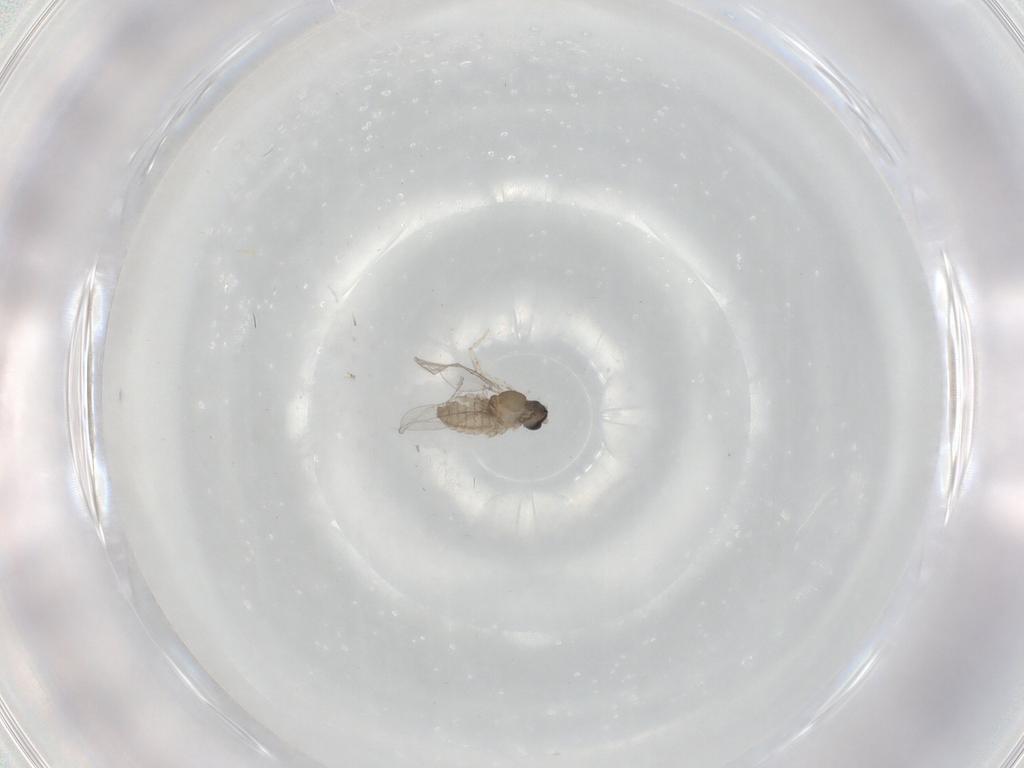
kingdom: Animalia
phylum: Arthropoda
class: Insecta
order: Diptera
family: Cecidomyiidae
